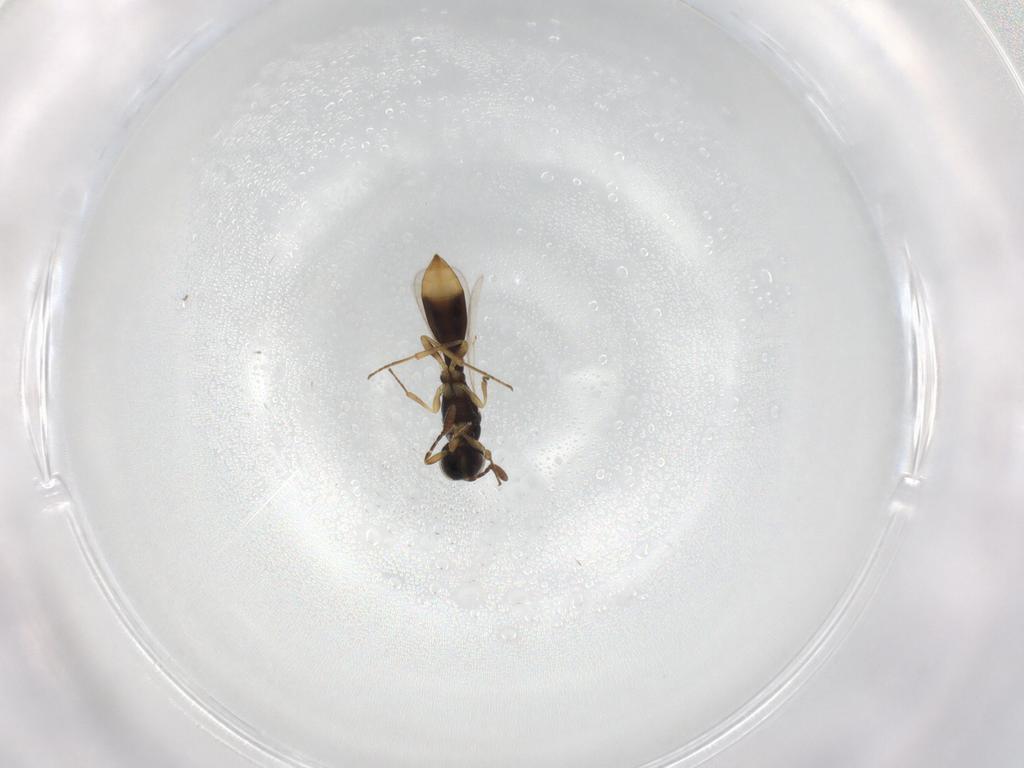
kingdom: Animalia
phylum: Arthropoda
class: Insecta
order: Hymenoptera
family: Scelionidae
